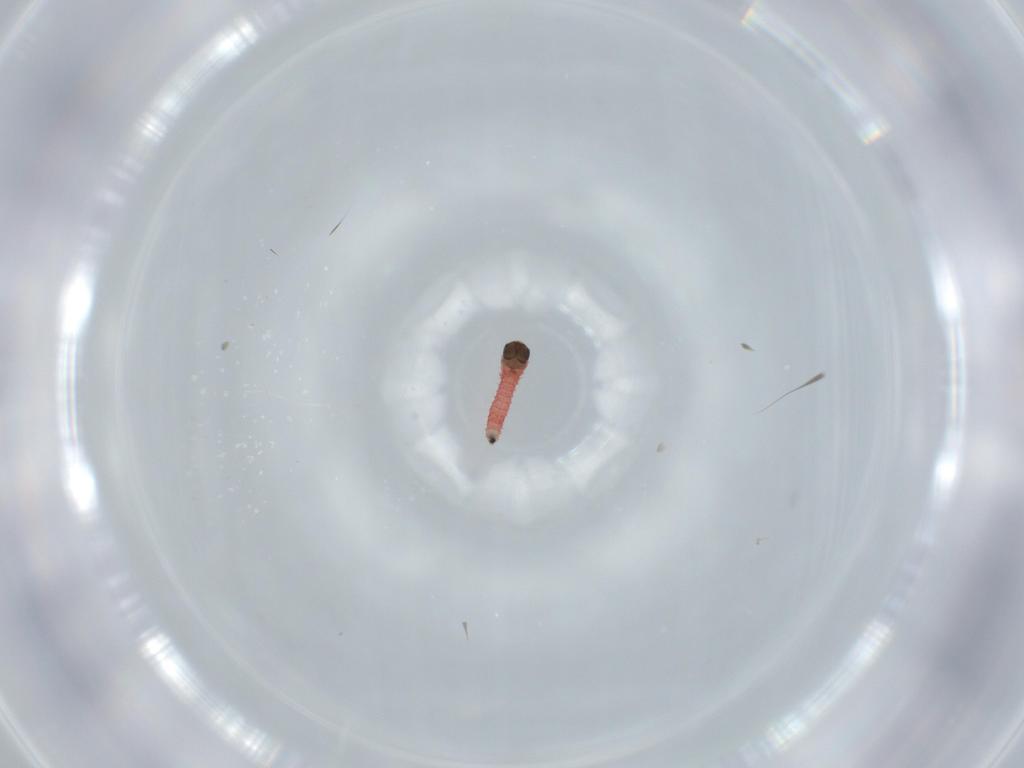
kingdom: Animalia
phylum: Arthropoda
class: Insecta
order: Lepidoptera
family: Autostichidae
